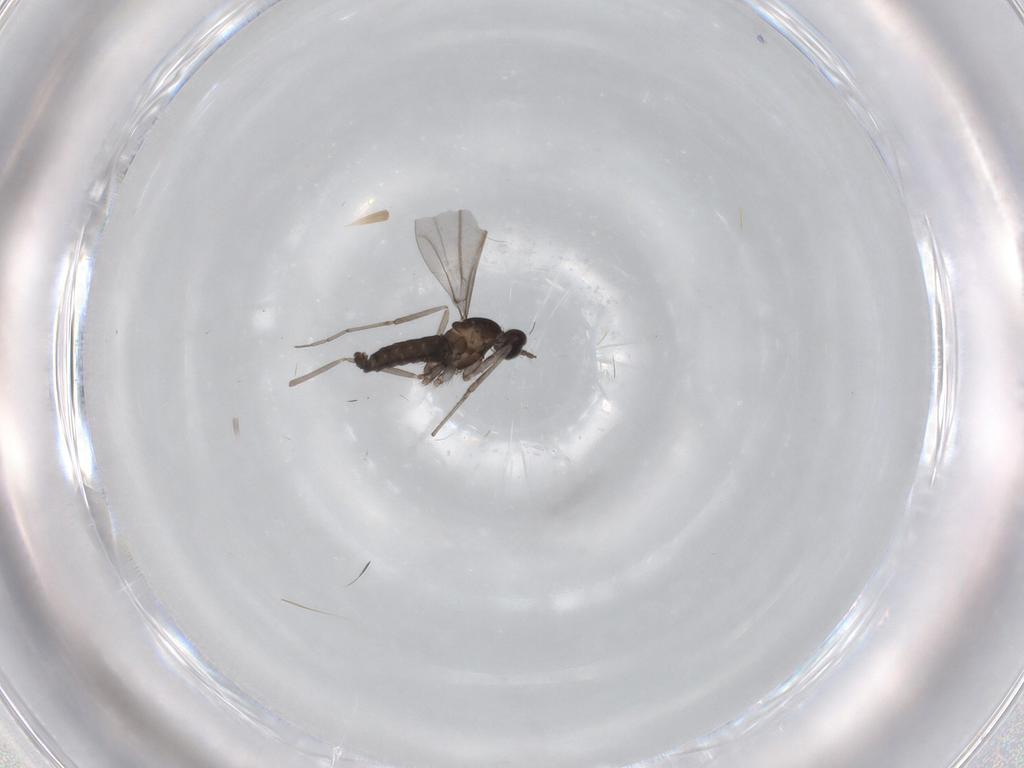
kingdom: Animalia
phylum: Arthropoda
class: Insecta
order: Diptera
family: Cecidomyiidae
